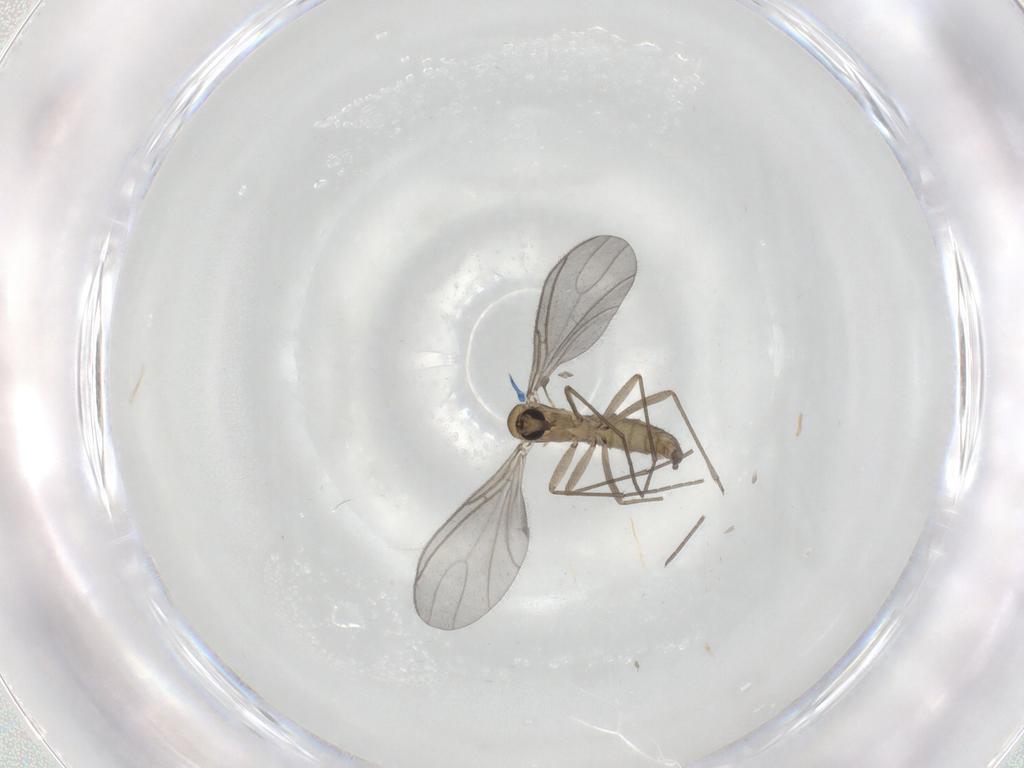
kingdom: Animalia
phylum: Arthropoda
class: Insecta
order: Diptera
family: Sciaridae
